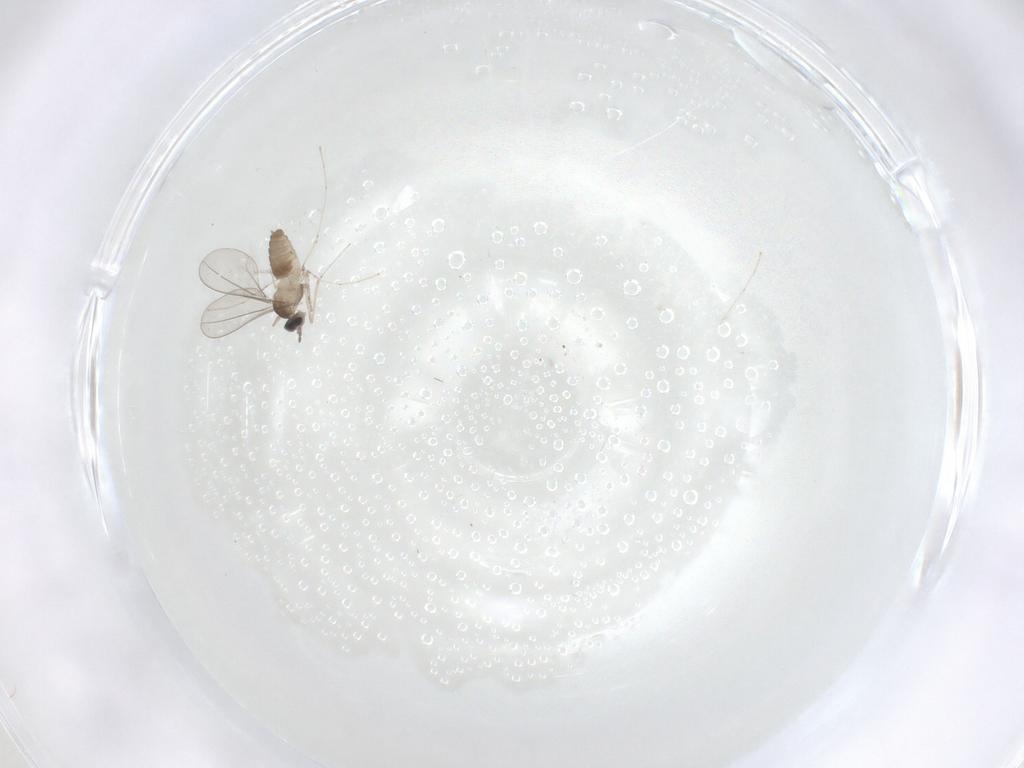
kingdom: Animalia
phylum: Arthropoda
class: Insecta
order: Diptera
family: Cecidomyiidae
